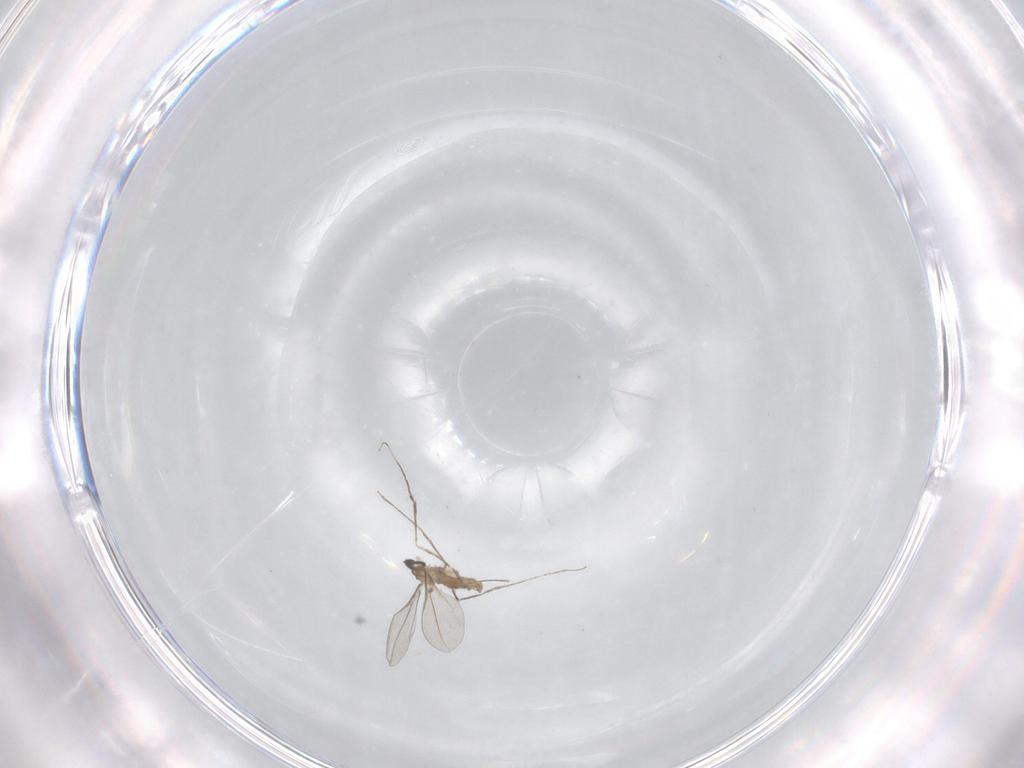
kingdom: Animalia
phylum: Arthropoda
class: Insecta
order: Diptera
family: Cecidomyiidae
